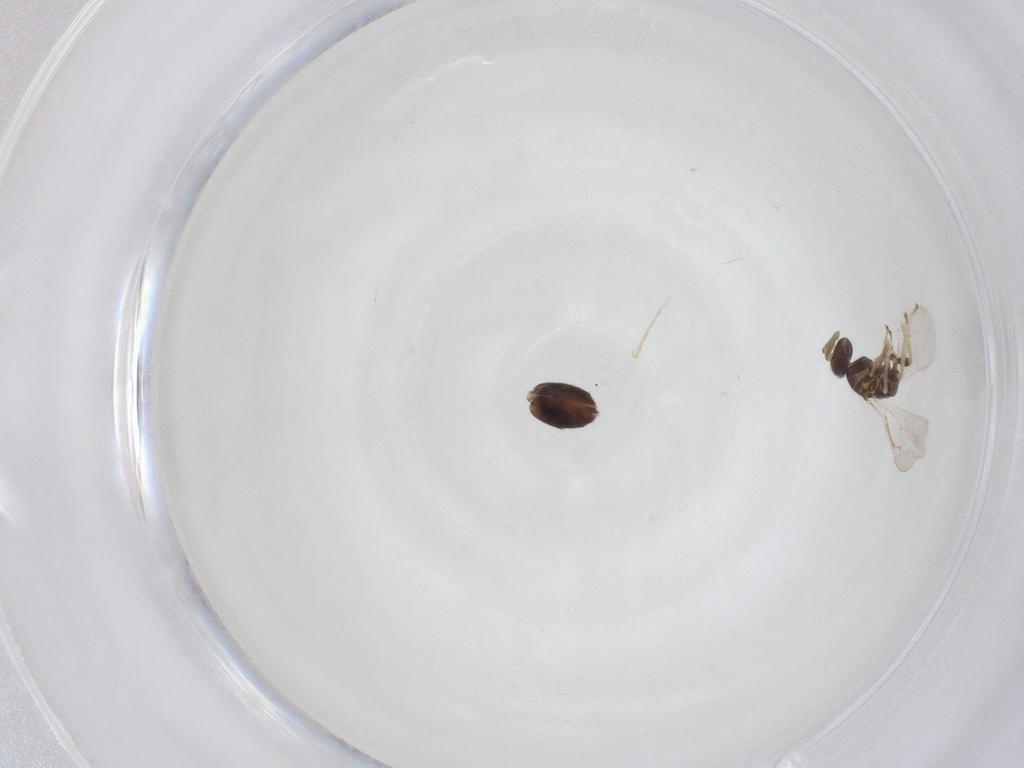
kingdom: Animalia
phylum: Arthropoda
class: Insecta
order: Hymenoptera
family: Eulophidae
